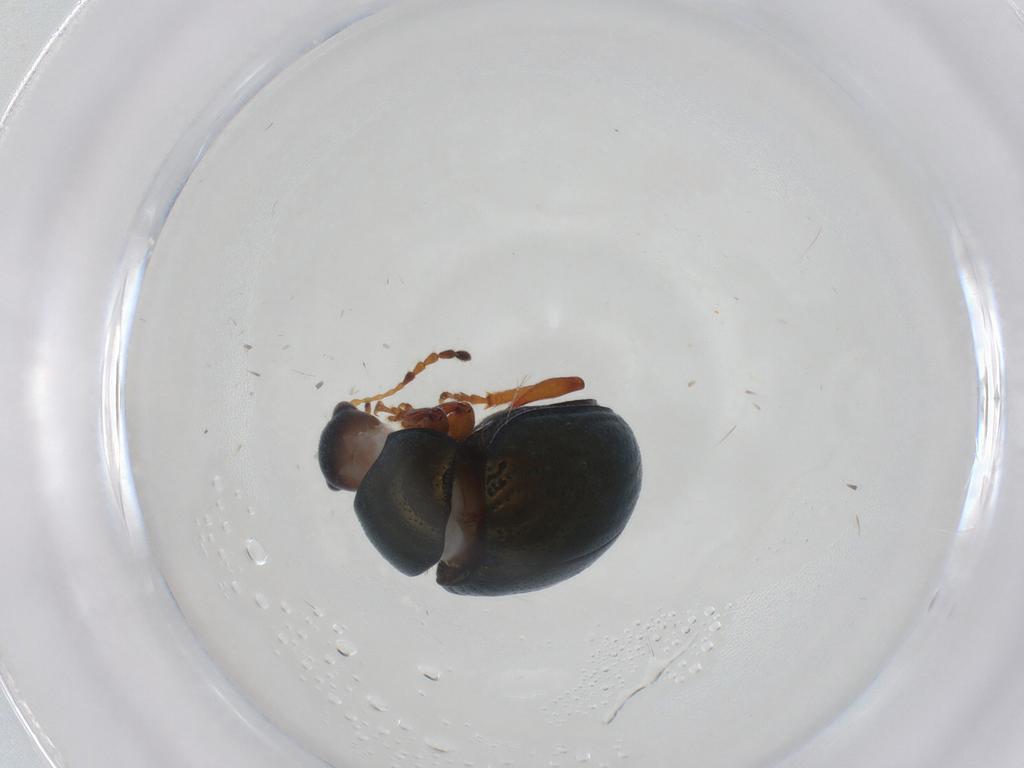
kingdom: Animalia
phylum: Arthropoda
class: Insecta
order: Coleoptera
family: Chrysomelidae
